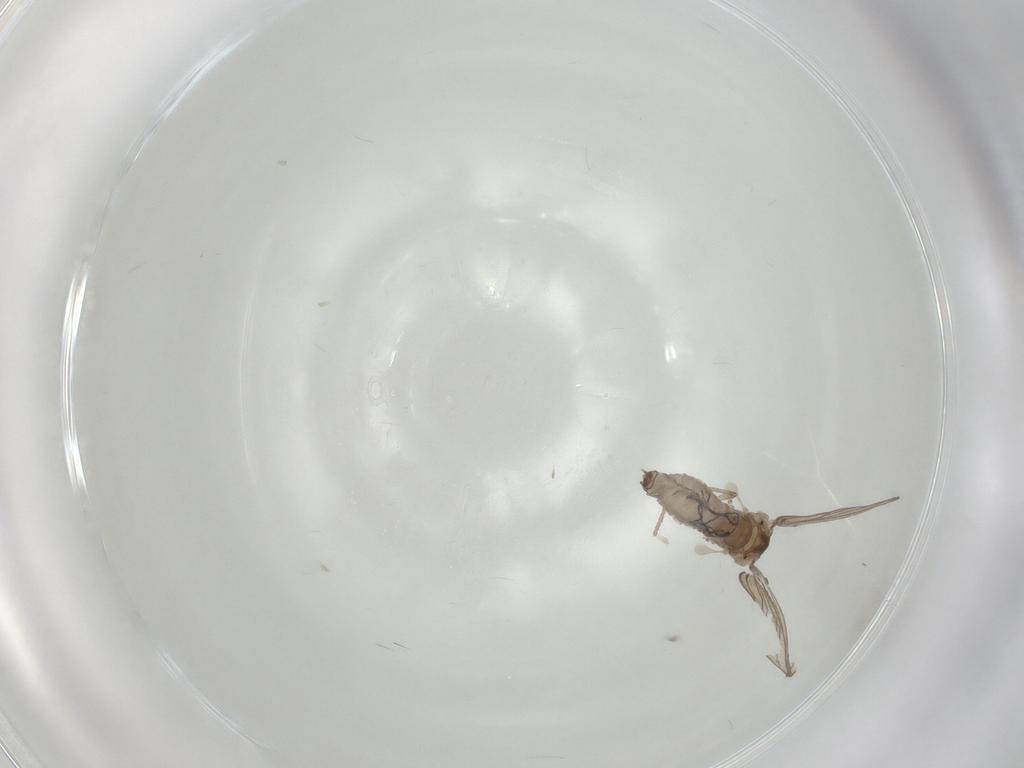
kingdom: Animalia
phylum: Arthropoda
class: Insecta
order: Diptera
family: Psychodidae
